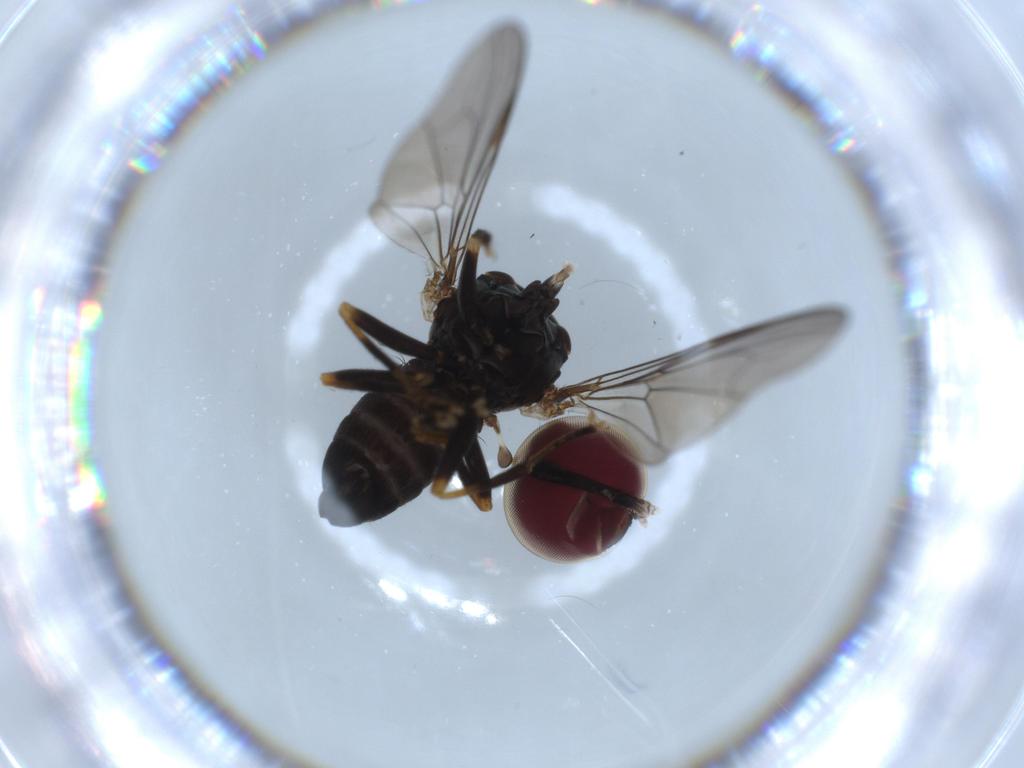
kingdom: Animalia
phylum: Arthropoda
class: Insecta
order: Diptera
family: Pipunculidae
